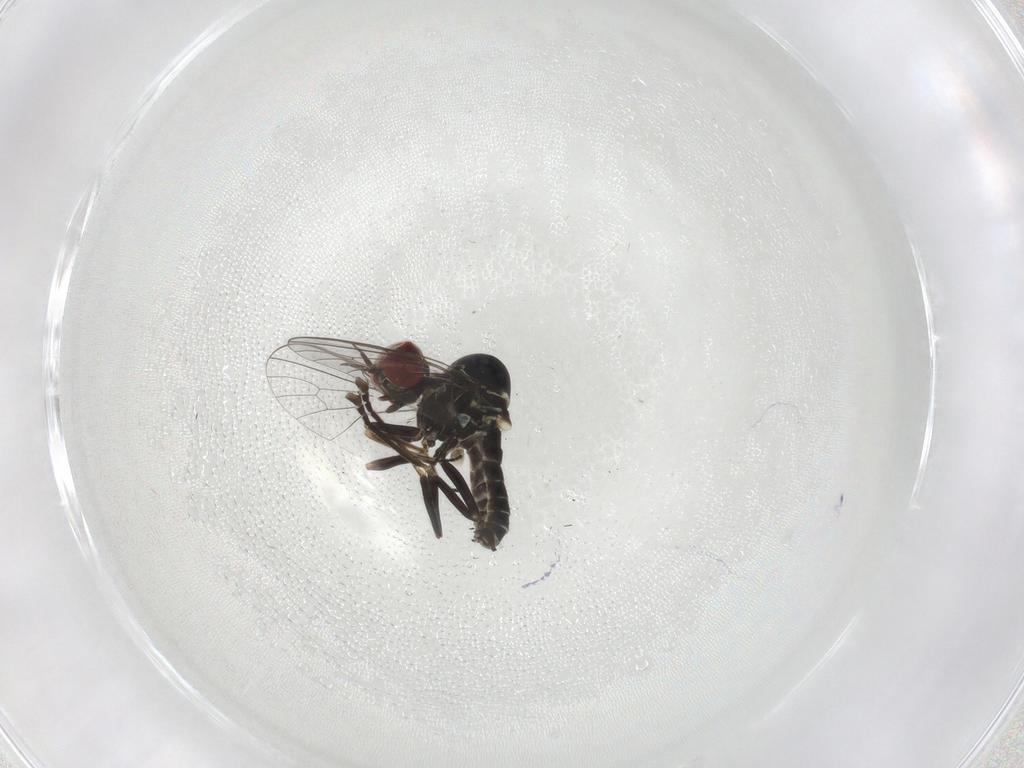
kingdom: Animalia
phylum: Arthropoda
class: Insecta
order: Diptera
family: Bombyliidae
